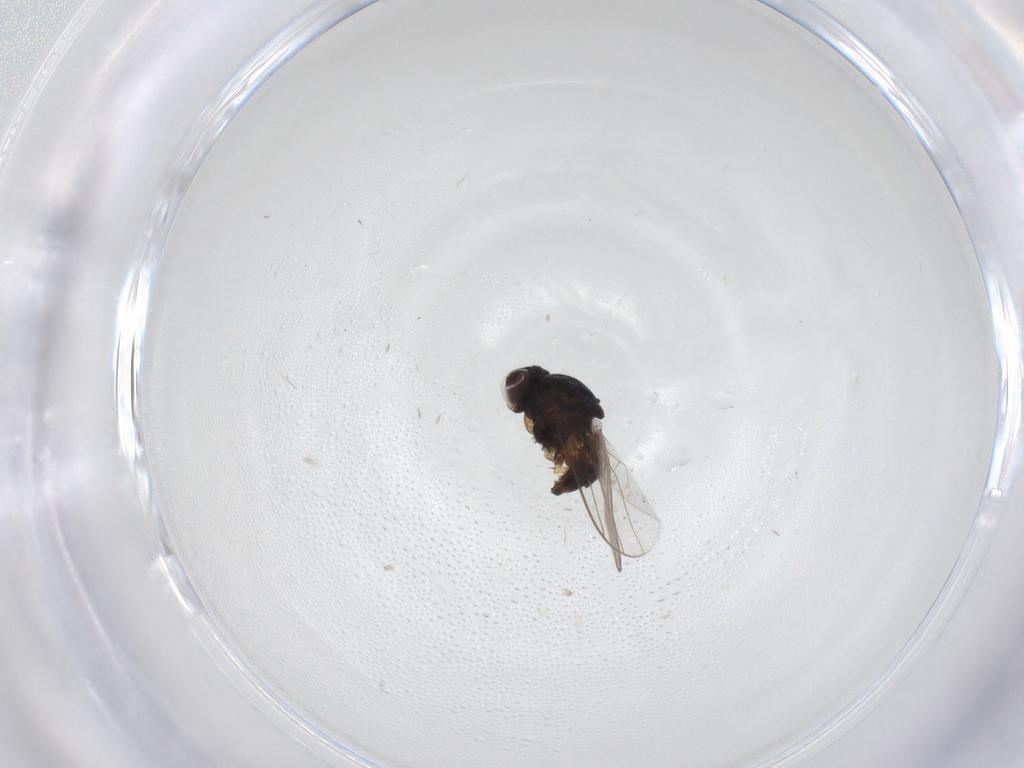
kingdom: Animalia
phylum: Arthropoda
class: Insecta
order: Diptera
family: Chloropidae
